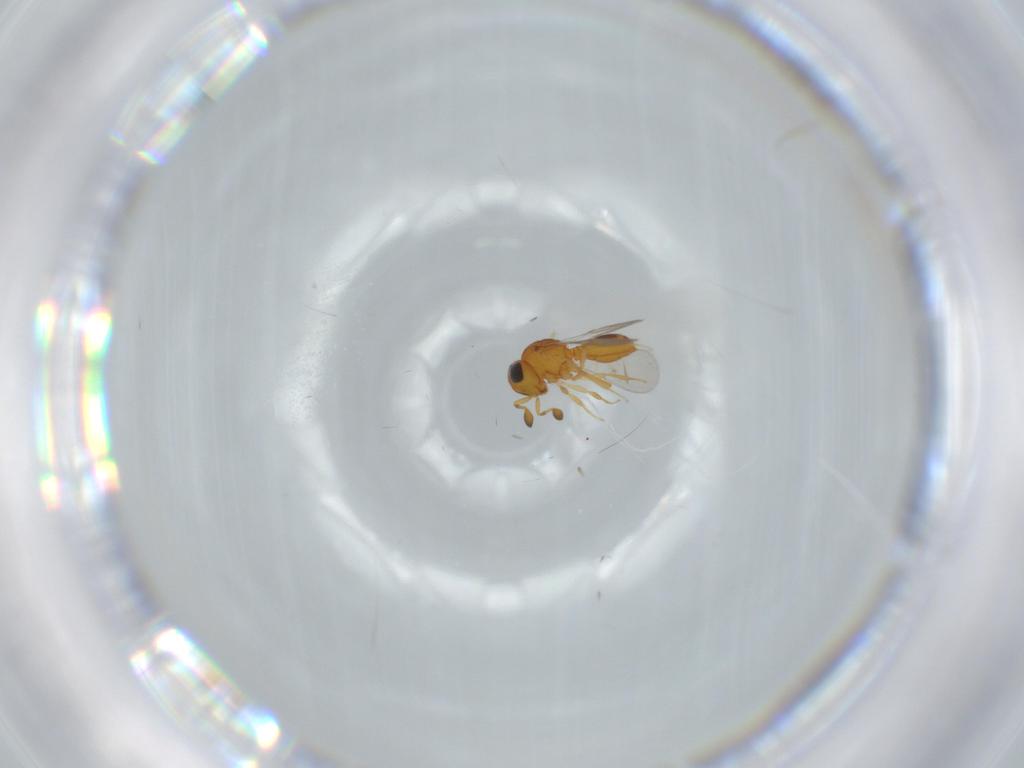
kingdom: Animalia
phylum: Arthropoda
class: Insecta
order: Hymenoptera
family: Scelionidae
